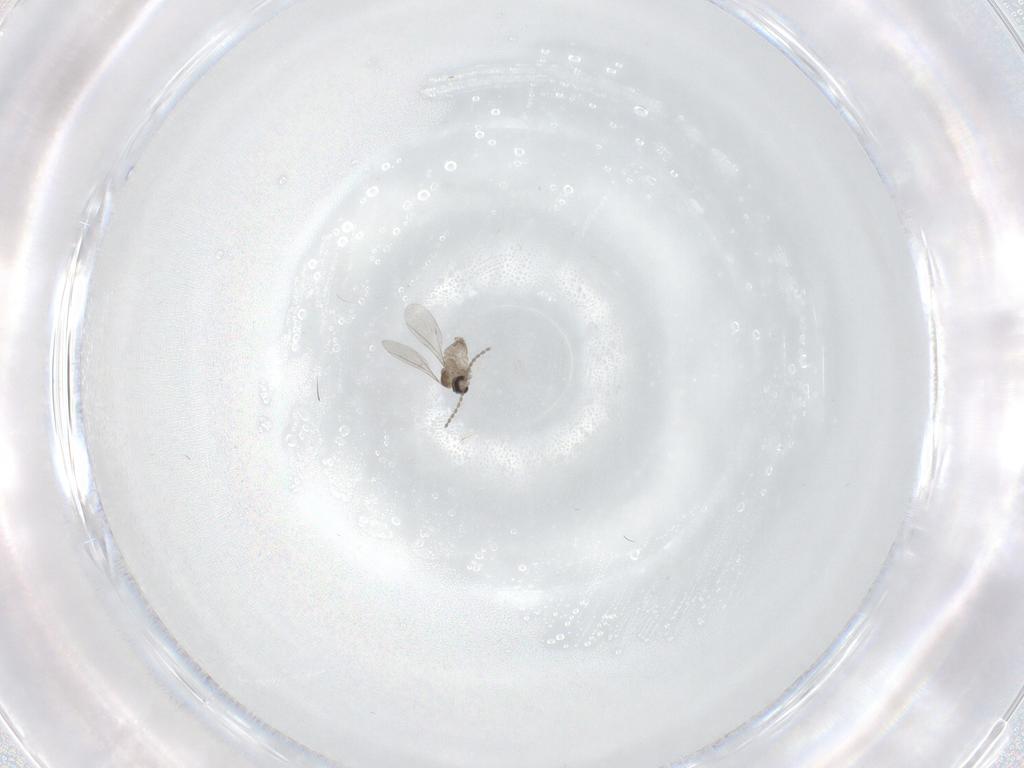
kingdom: Animalia
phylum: Arthropoda
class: Insecta
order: Diptera
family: Cecidomyiidae
